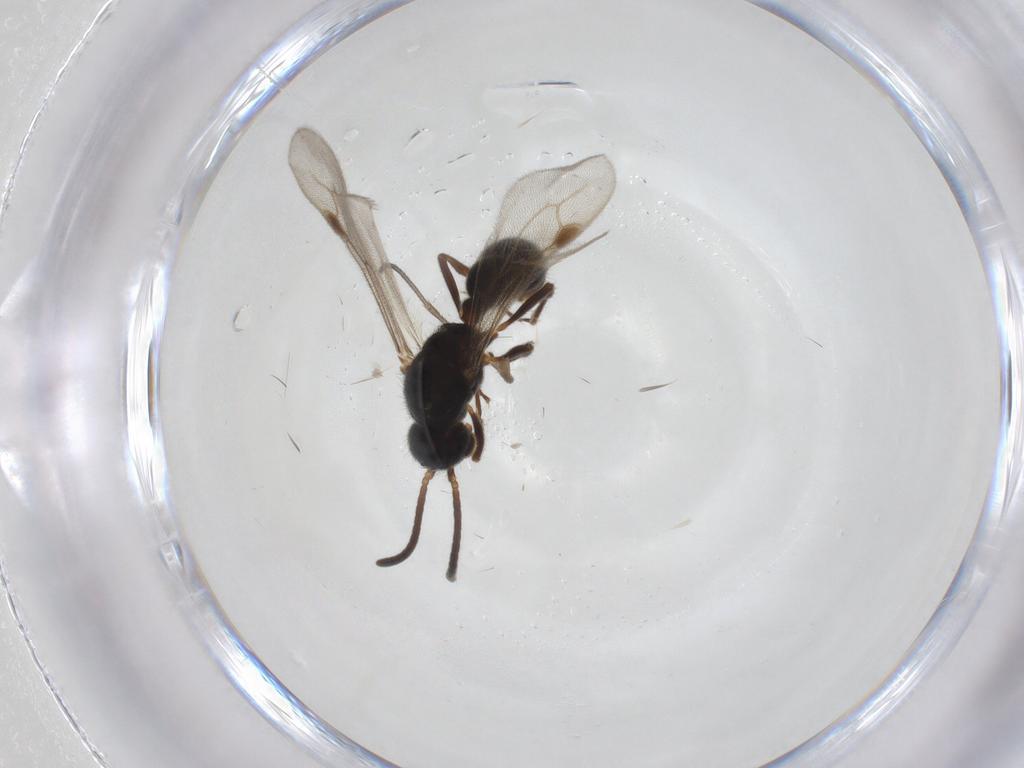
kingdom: Animalia
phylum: Arthropoda
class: Insecta
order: Hymenoptera
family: Formicidae
